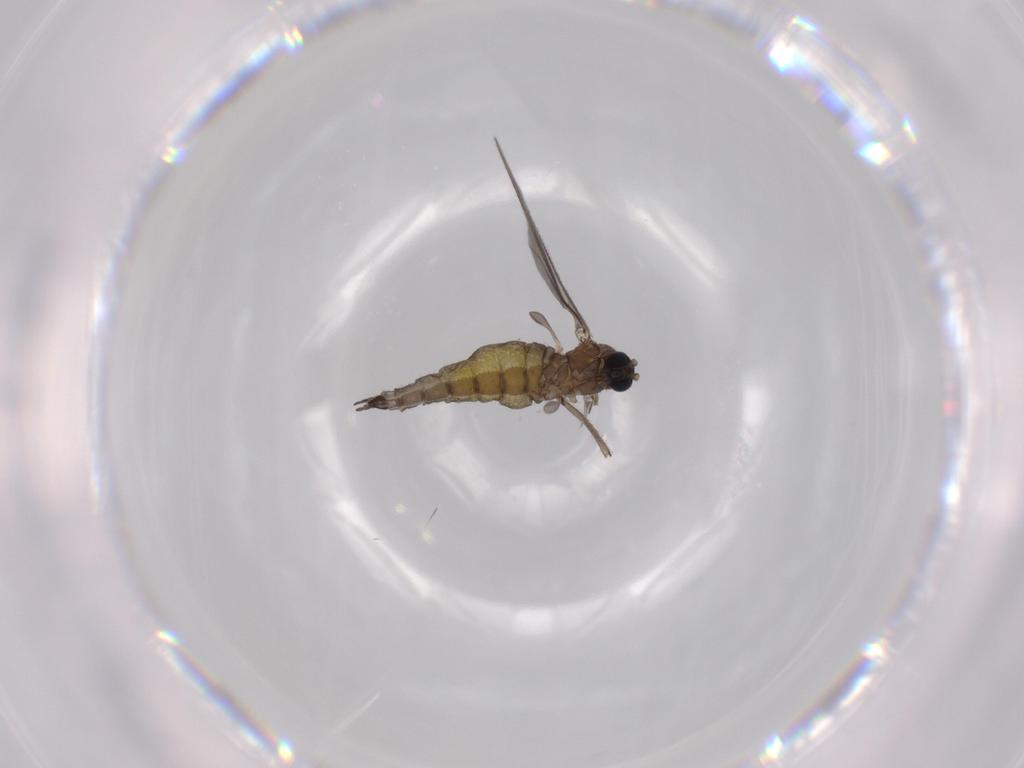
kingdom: Animalia
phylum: Arthropoda
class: Insecta
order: Diptera
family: Sciaridae
